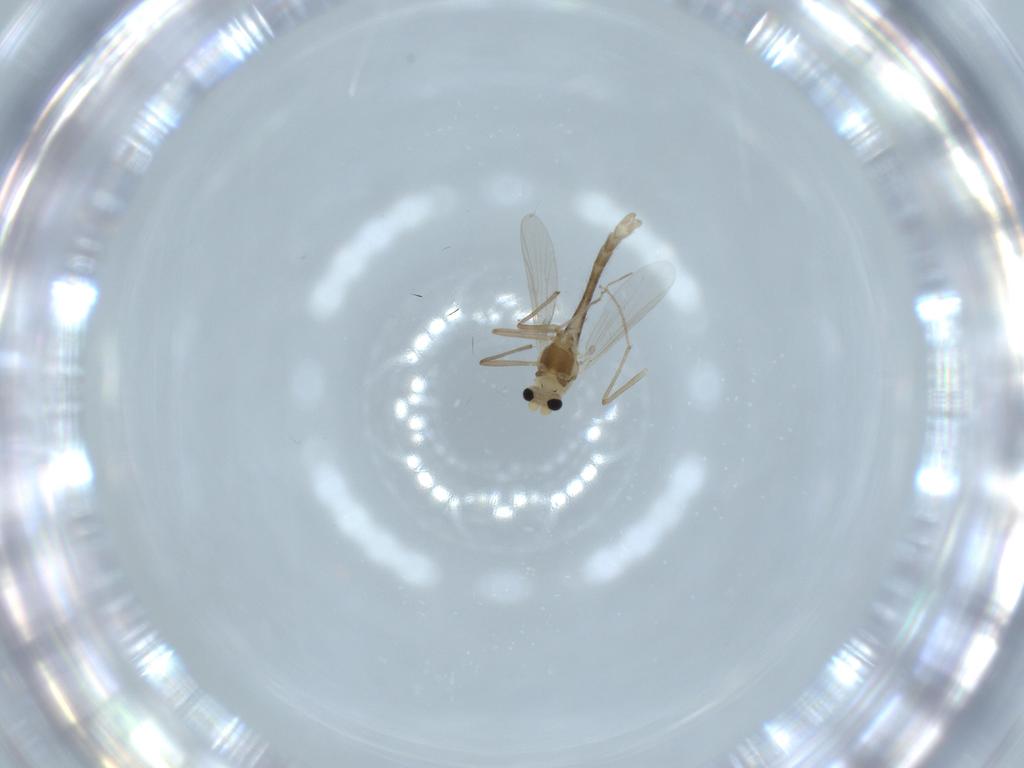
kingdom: Animalia
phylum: Arthropoda
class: Insecta
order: Diptera
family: Chironomidae
